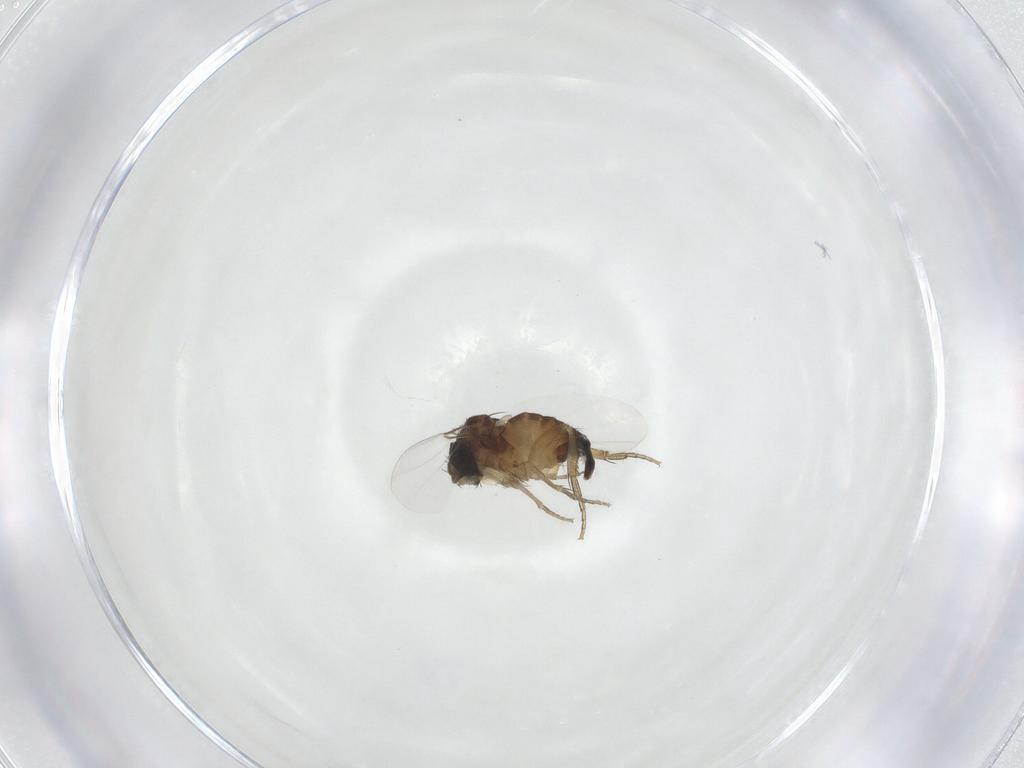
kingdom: Animalia
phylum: Arthropoda
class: Insecta
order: Diptera
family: Phoridae
